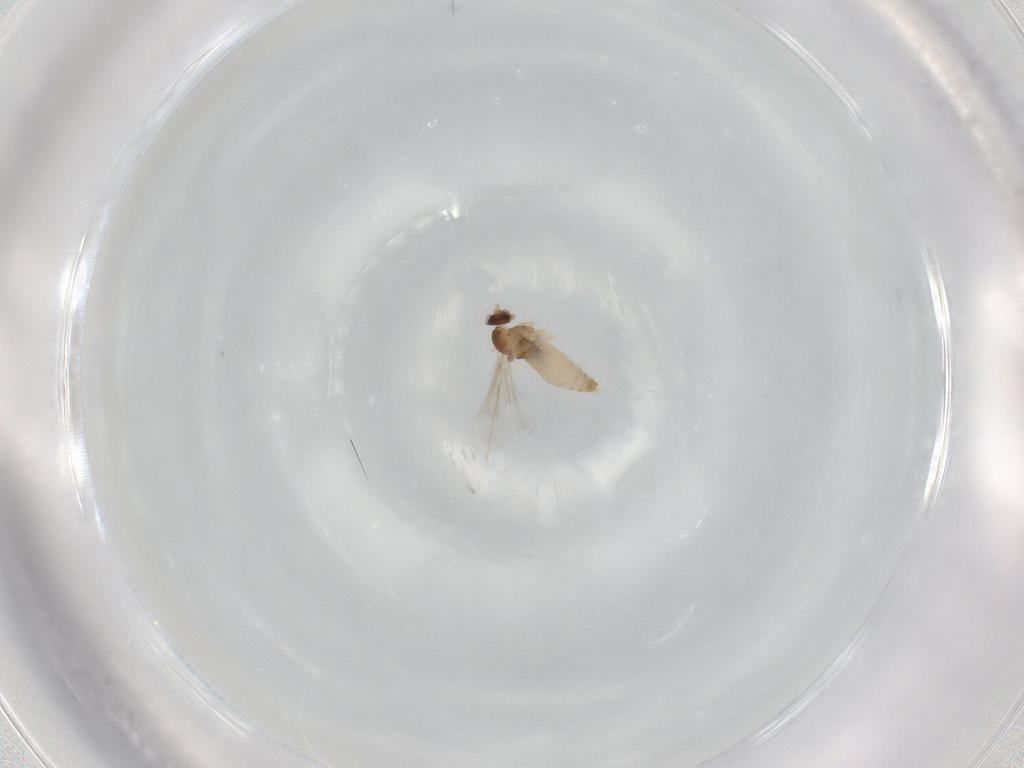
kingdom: Animalia
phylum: Arthropoda
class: Insecta
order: Diptera
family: Syrphidae
